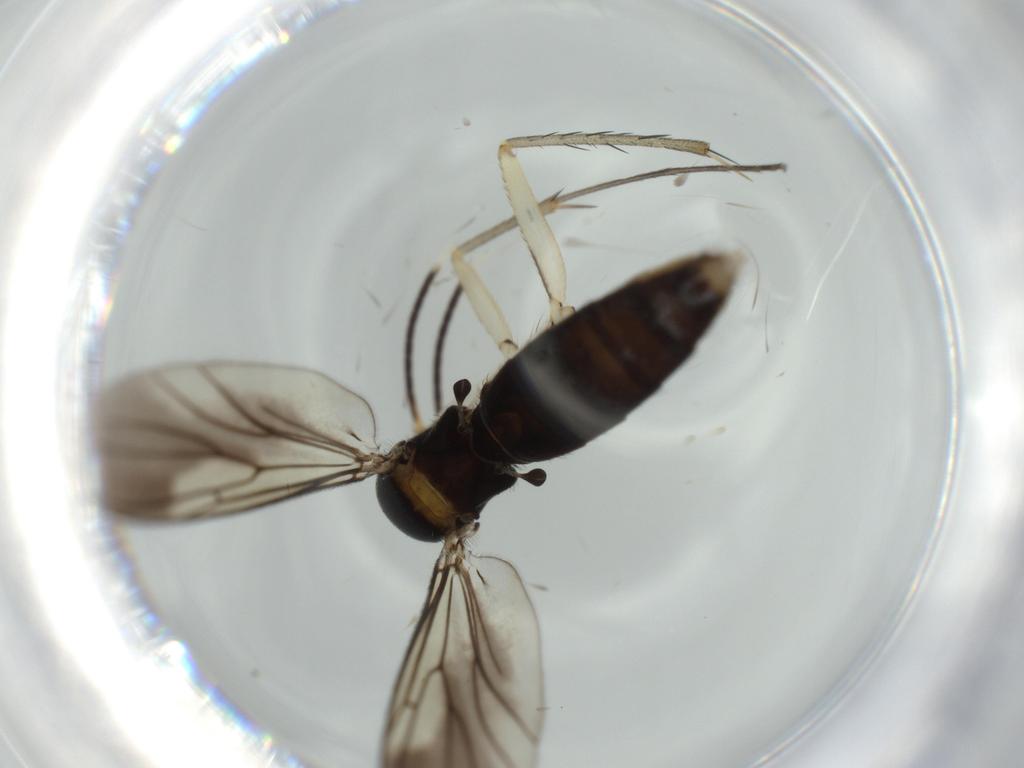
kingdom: Animalia
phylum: Arthropoda
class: Insecta
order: Diptera
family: Mycetophilidae
